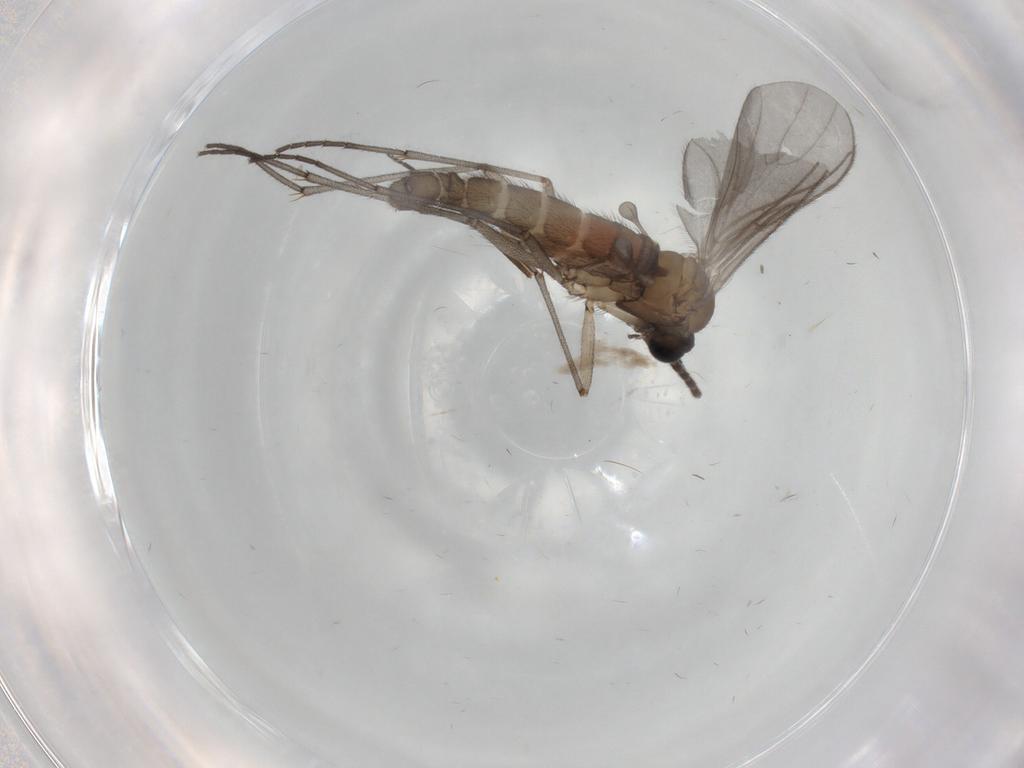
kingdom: Animalia
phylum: Arthropoda
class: Insecta
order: Diptera
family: Sciaridae
